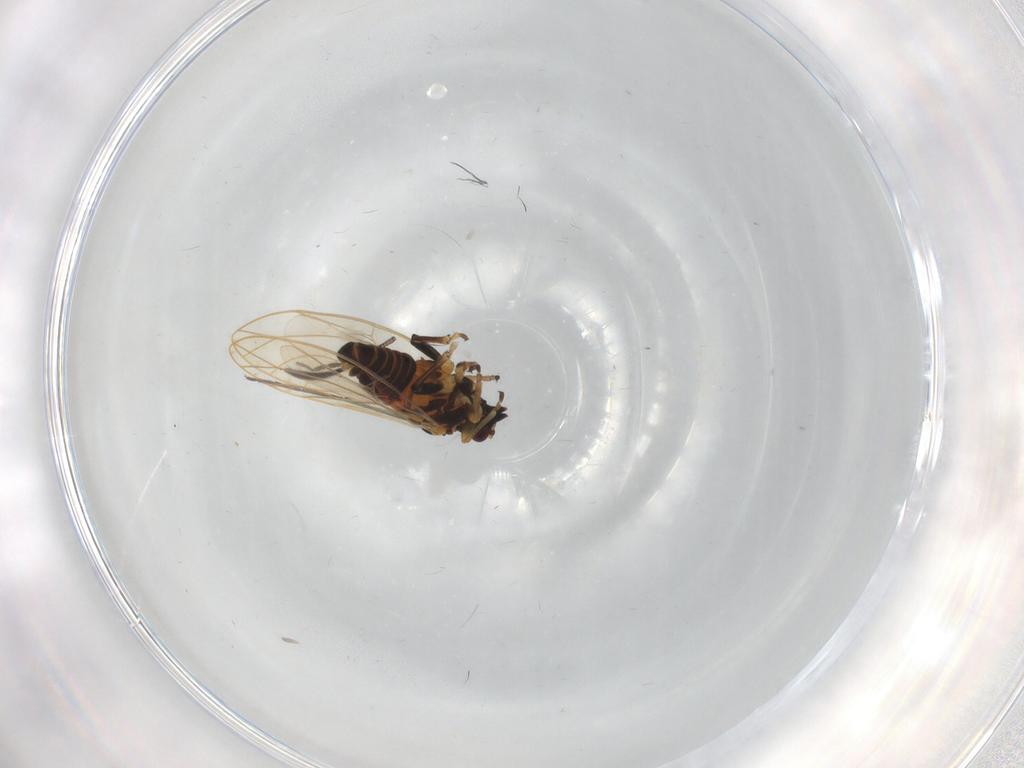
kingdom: Animalia
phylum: Arthropoda
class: Insecta
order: Hemiptera
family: Triozidae
